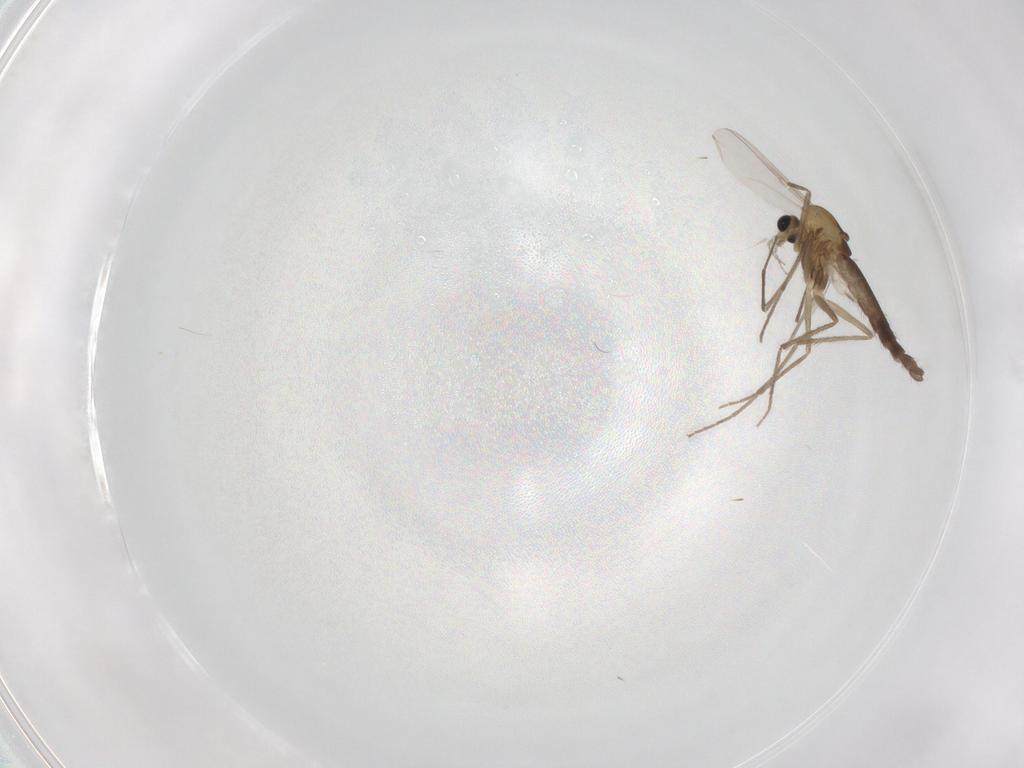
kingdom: Animalia
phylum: Arthropoda
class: Insecta
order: Diptera
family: Chironomidae
